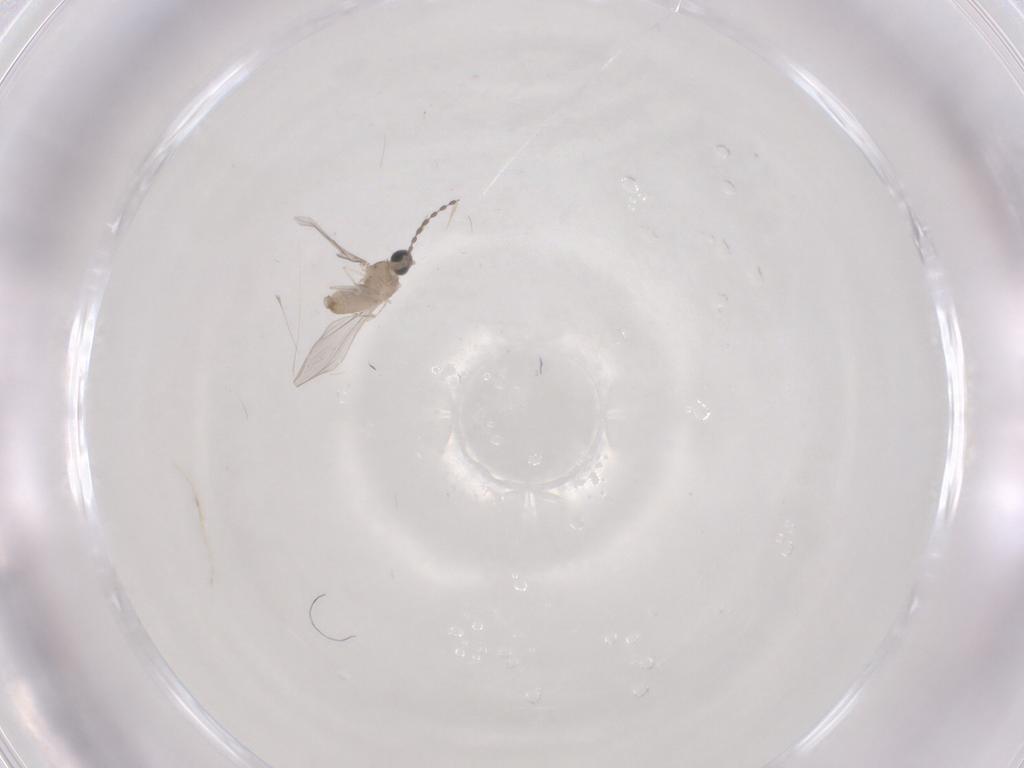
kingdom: Animalia
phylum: Arthropoda
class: Insecta
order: Diptera
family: Cecidomyiidae
